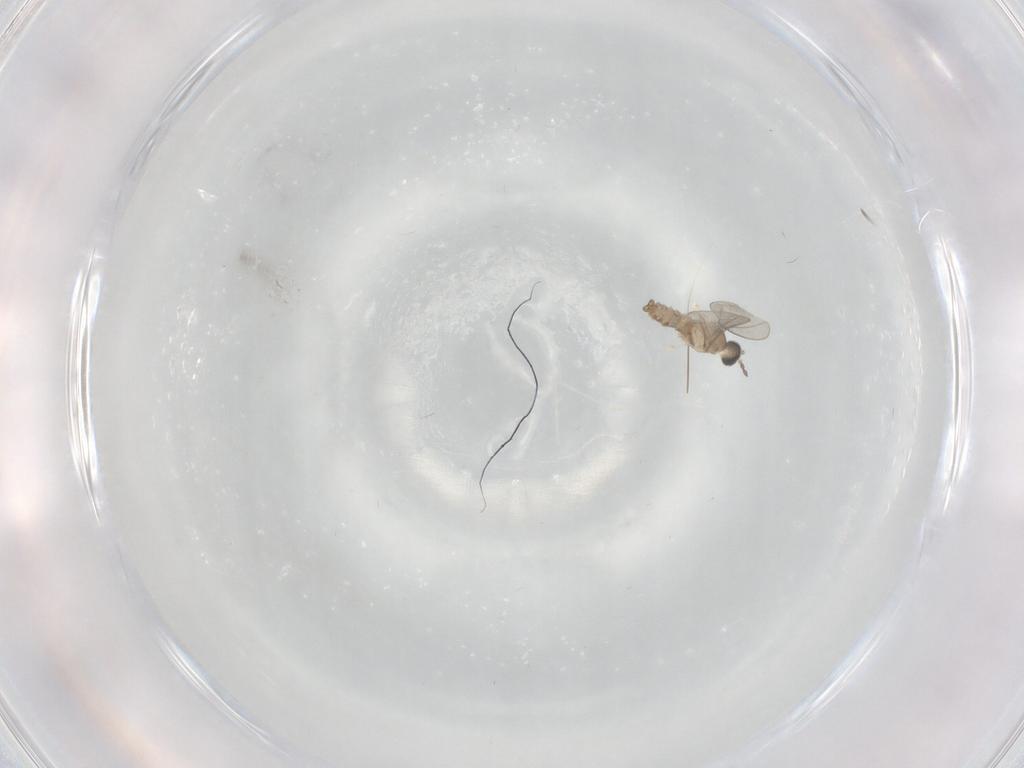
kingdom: Animalia
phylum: Arthropoda
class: Insecta
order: Diptera
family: Cecidomyiidae
